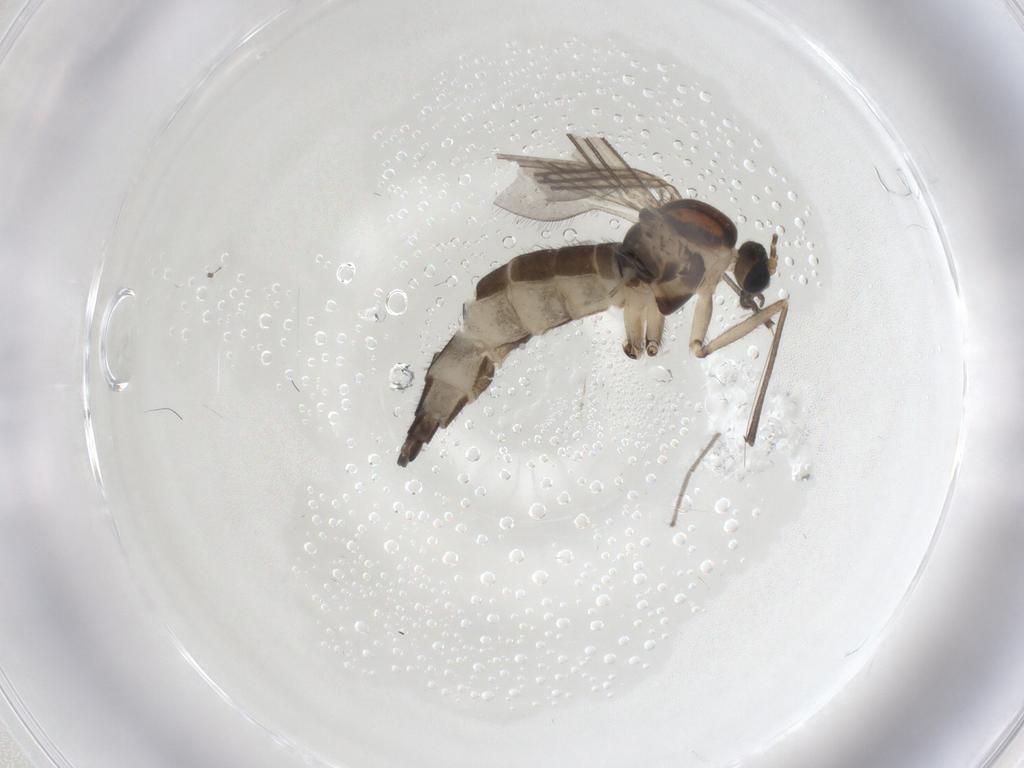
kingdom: Animalia
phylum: Arthropoda
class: Insecta
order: Diptera
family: Sciaridae
